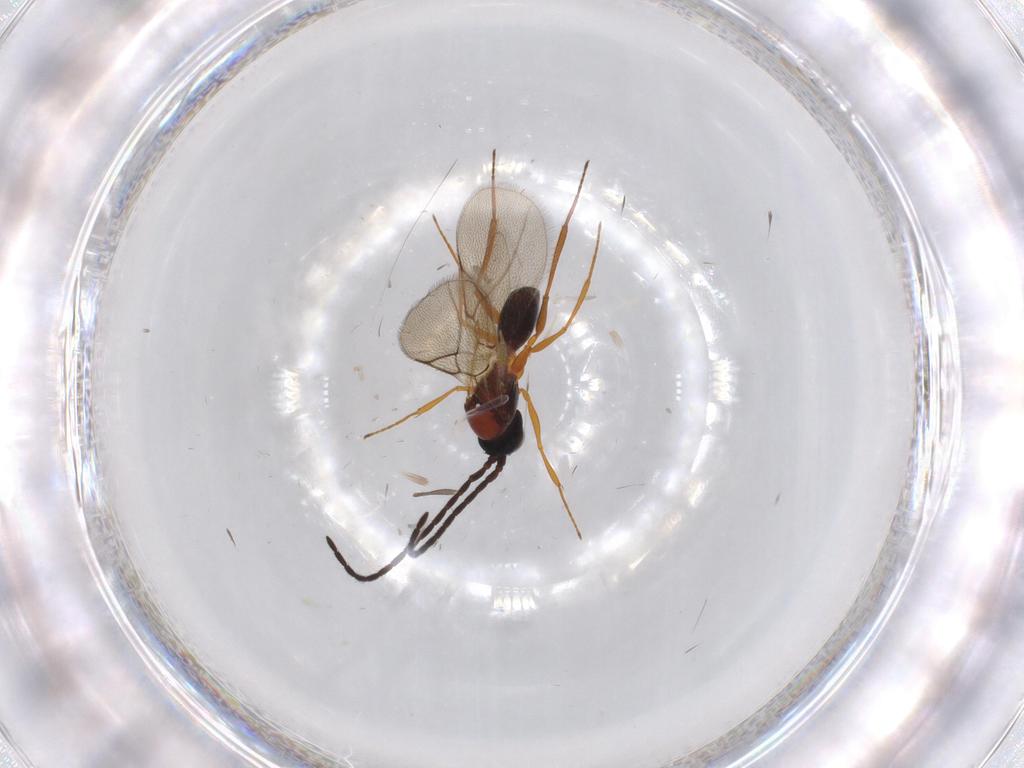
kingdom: Animalia
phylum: Arthropoda
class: Insecta
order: Hymenoptera
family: Figitidae
